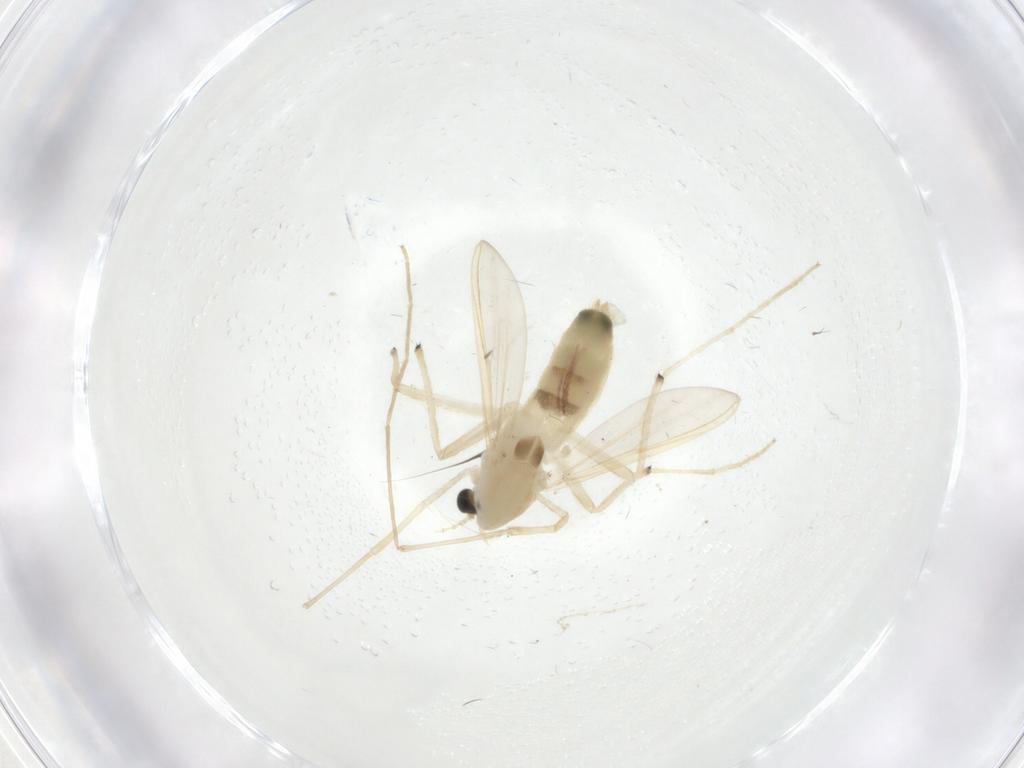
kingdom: Animalia
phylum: Arthropoda
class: Insecta
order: Diptera
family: Chironomidae
